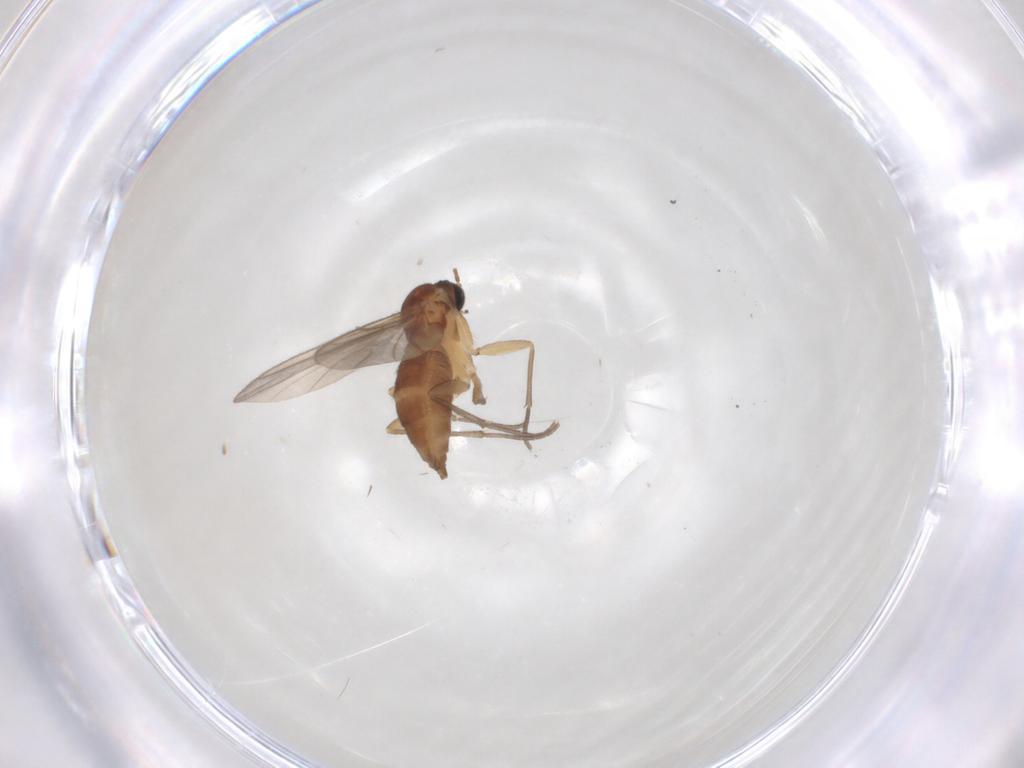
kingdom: Animalia
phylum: Arthropoda
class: Insecta
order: Diptera
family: Sciaridae
